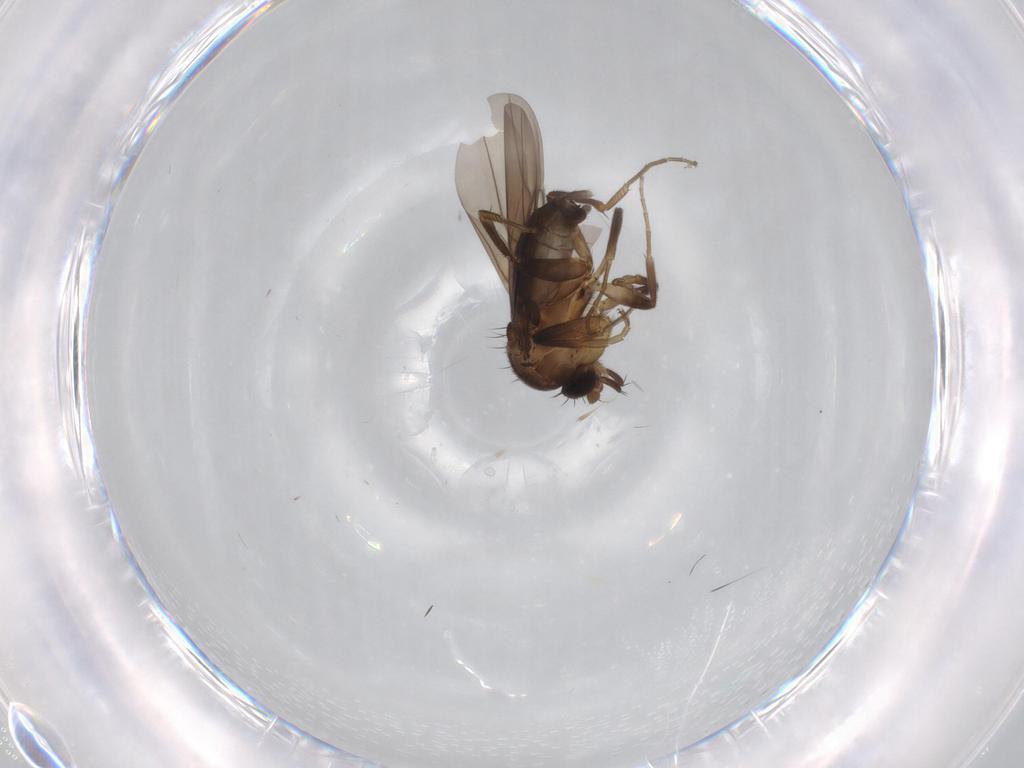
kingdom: Animalia
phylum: Arthropoda
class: Insecta
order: Diptera
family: Phoridae
